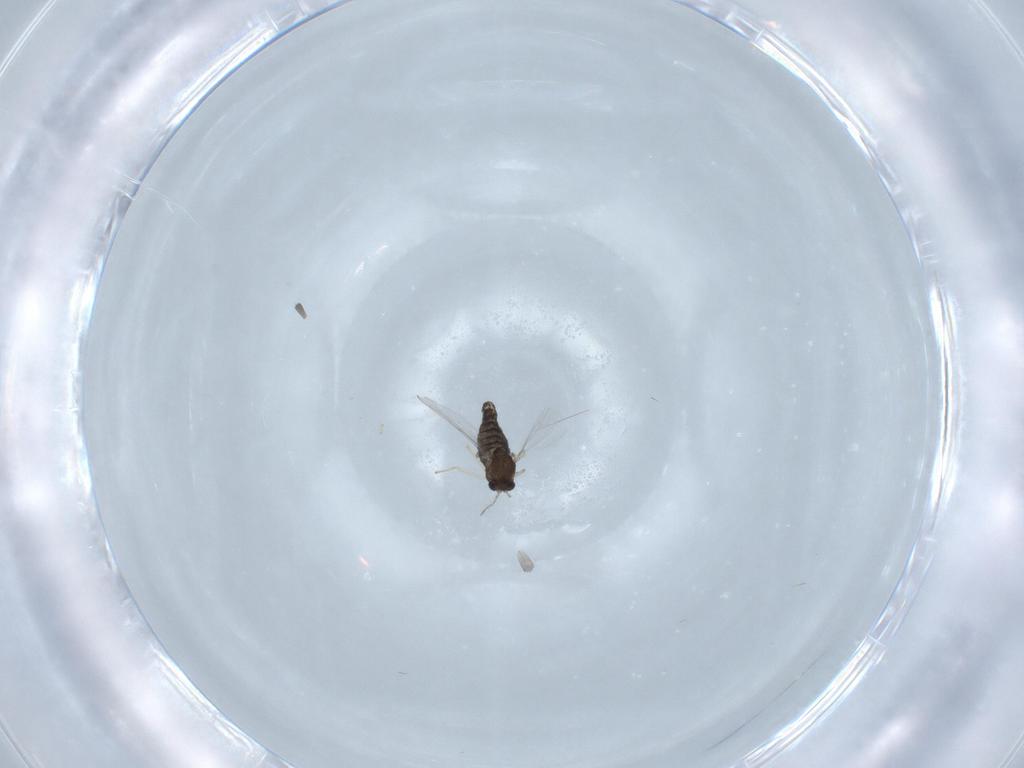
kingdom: Animalia
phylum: Arthropoda
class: Insecta
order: Diptera
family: Chironomidae
